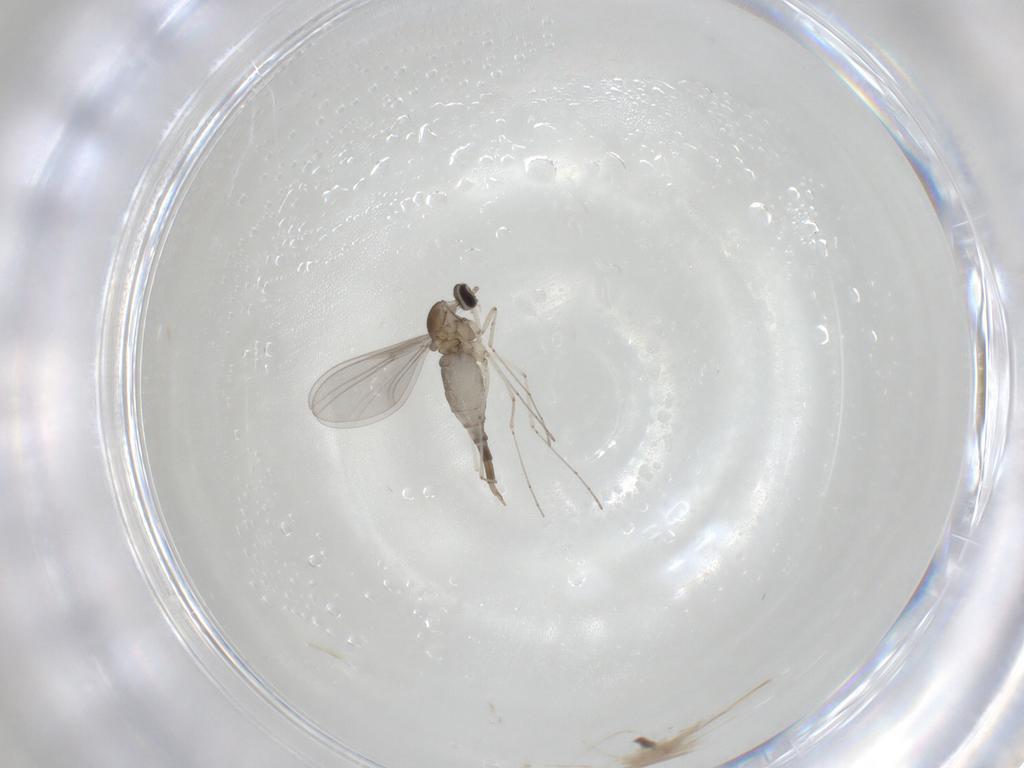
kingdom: Animalia
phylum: Arthropoda
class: Insecta
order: Diptera
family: Cecidomyiidae
